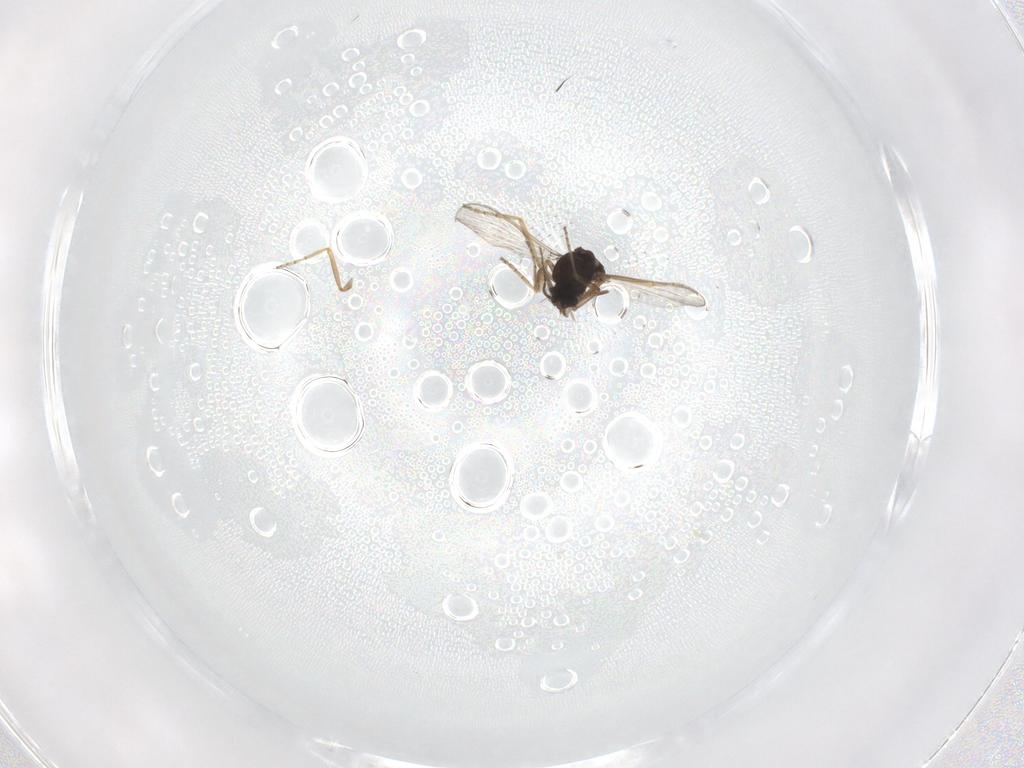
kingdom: Animalia
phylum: Arthropoda
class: Insecta
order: Diptera
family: Ceratopogonidae
